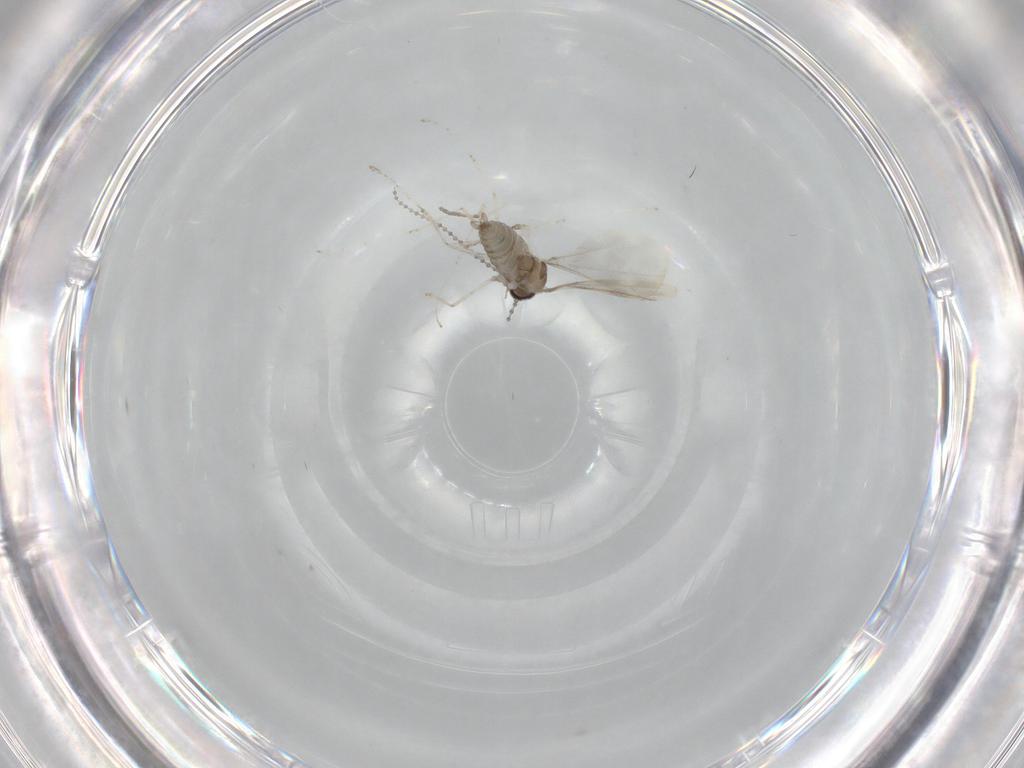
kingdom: Animalia
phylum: Arthropoda
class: Insecta
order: Diptera
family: Cecidomyiidae
